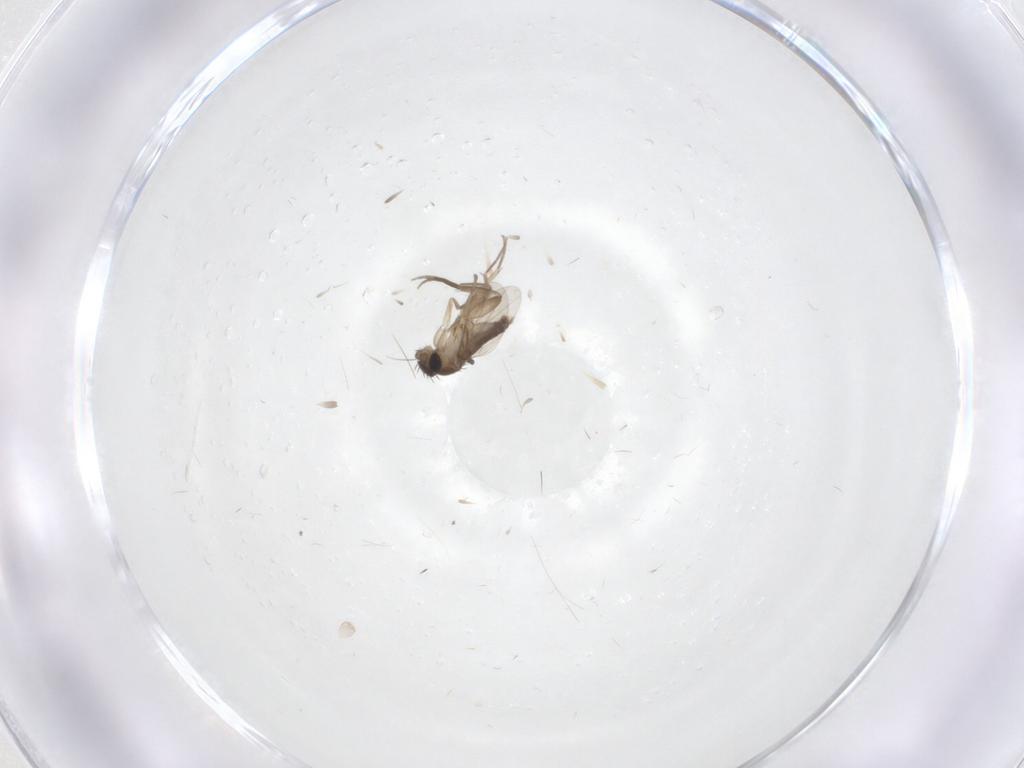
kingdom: Animalia
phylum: Arthropoda
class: Insecta
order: Diptera
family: Phoridae
